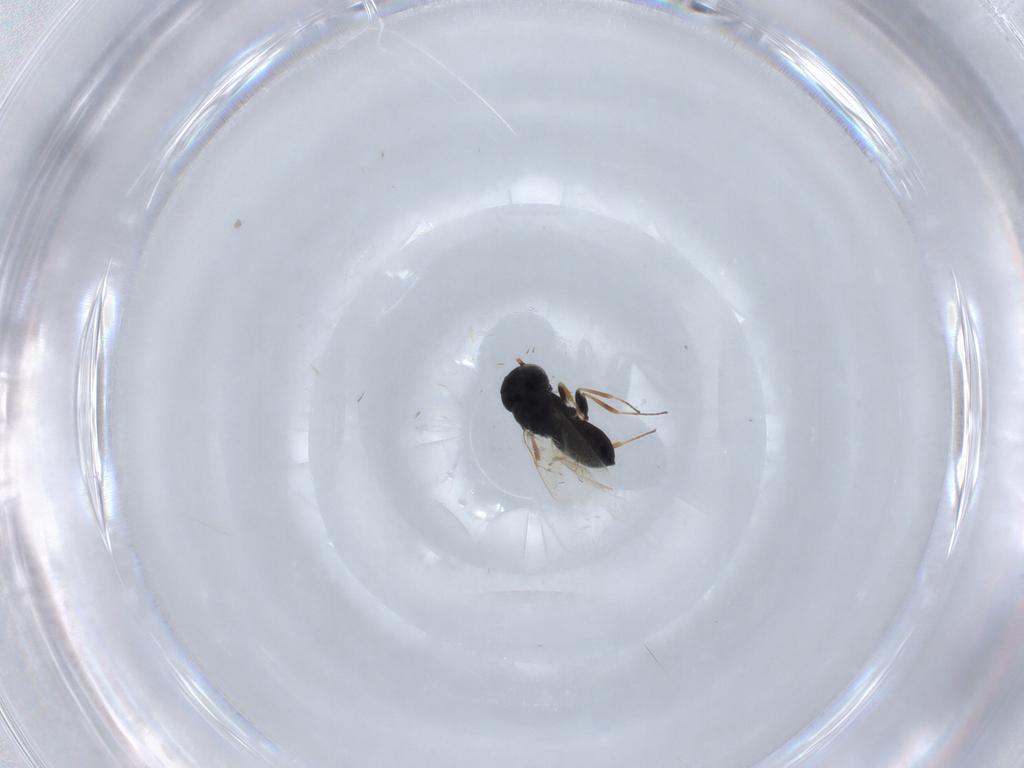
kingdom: Animalia
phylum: Arthropoda
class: Insecta
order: Hymenoptera
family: Scelionidae
